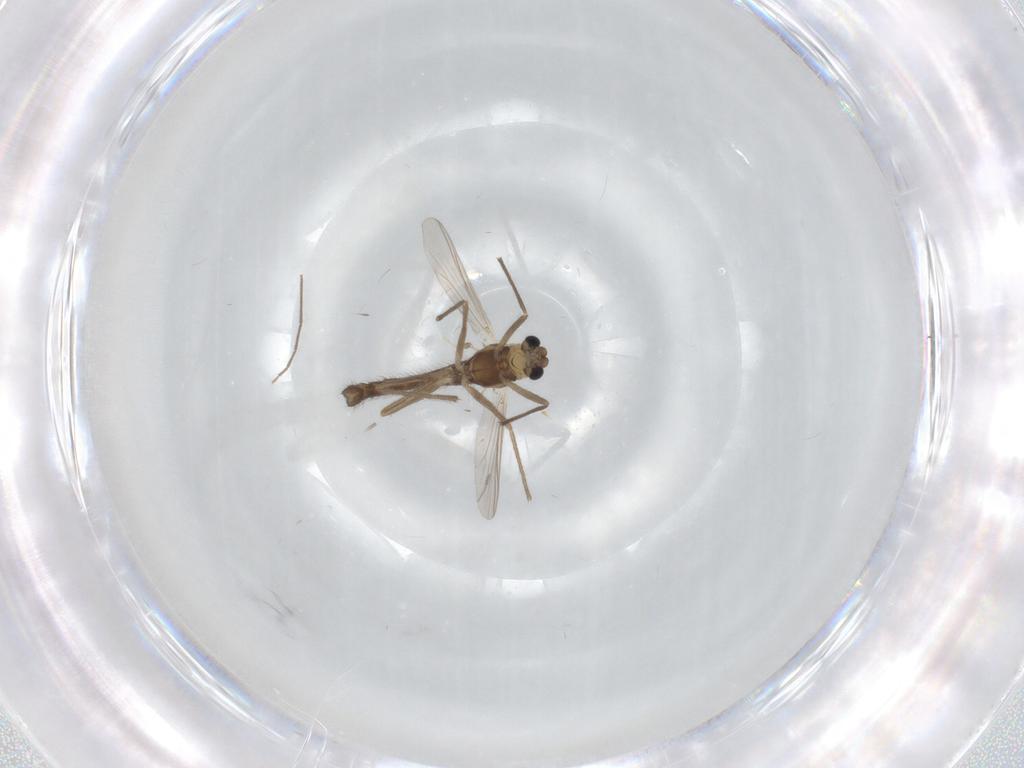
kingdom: Animalia
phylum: Arthropoda
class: Insecta
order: Diptera
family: Chironomidae
